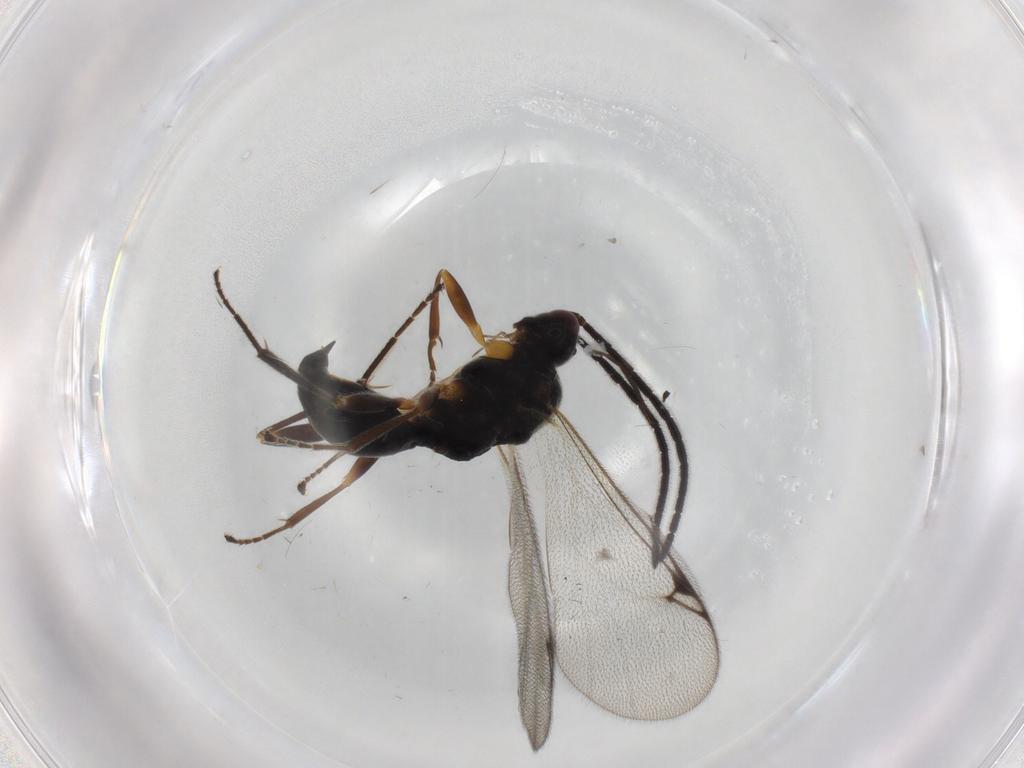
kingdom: Animalia
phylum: Arthropoda
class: Insecta
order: Hymenoptera
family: Proctotrupidae
